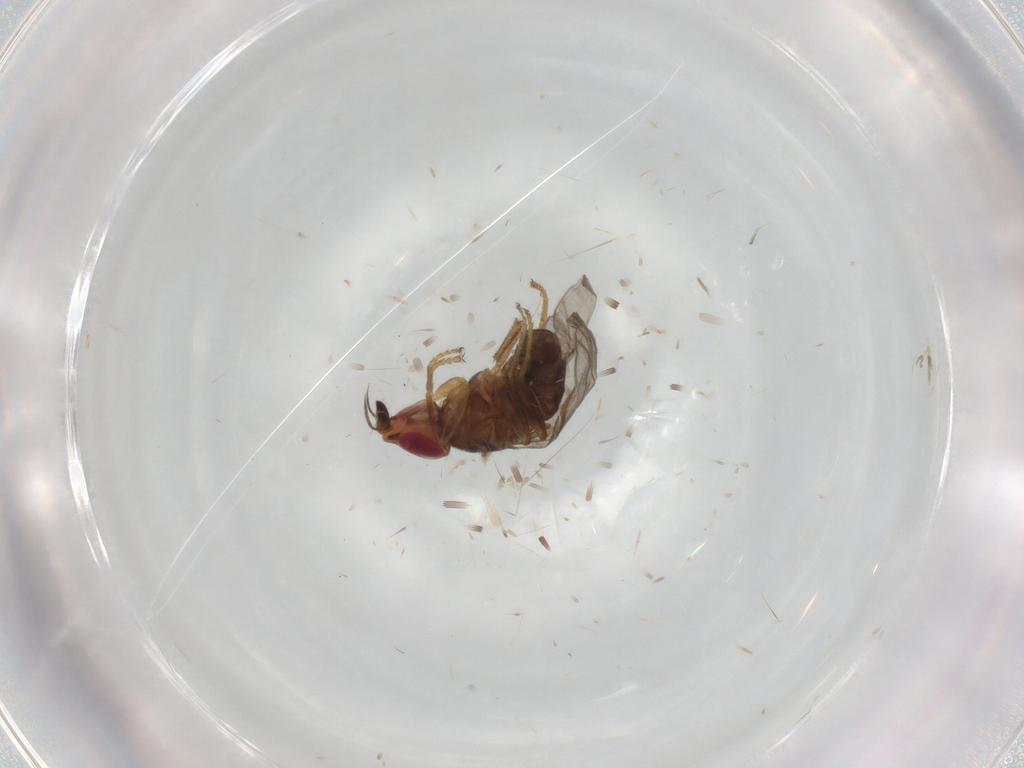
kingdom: Animalia
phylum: Arthropoda
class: Insecta
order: Diptera
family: Chloropidae
